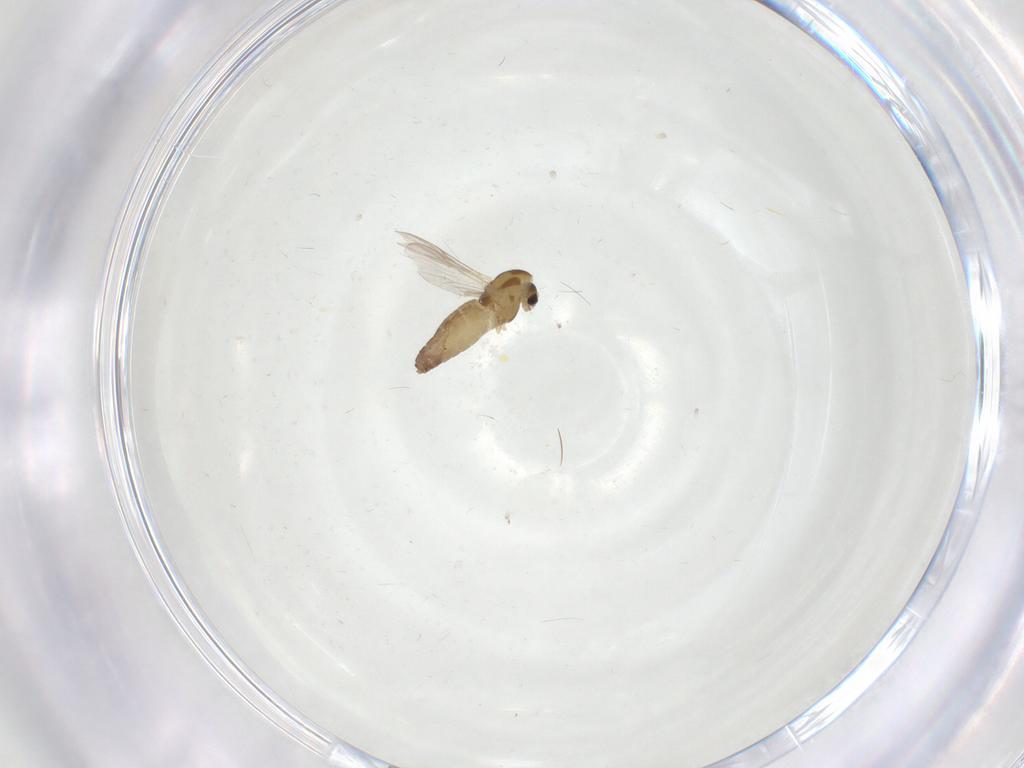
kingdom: Animalia
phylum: Arthropoda
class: Insecta
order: Diptera
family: Chironomidae
